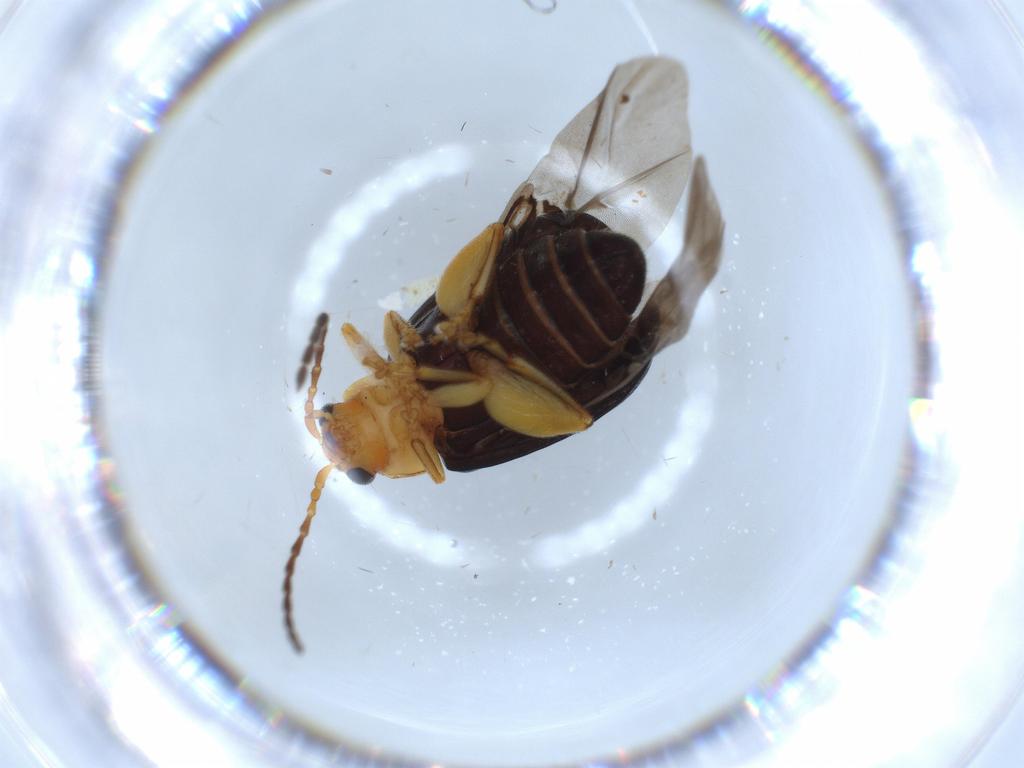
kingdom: Animalia
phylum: Arthropoda
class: Insecta
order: Coleoptera
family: Chrysomelidae
